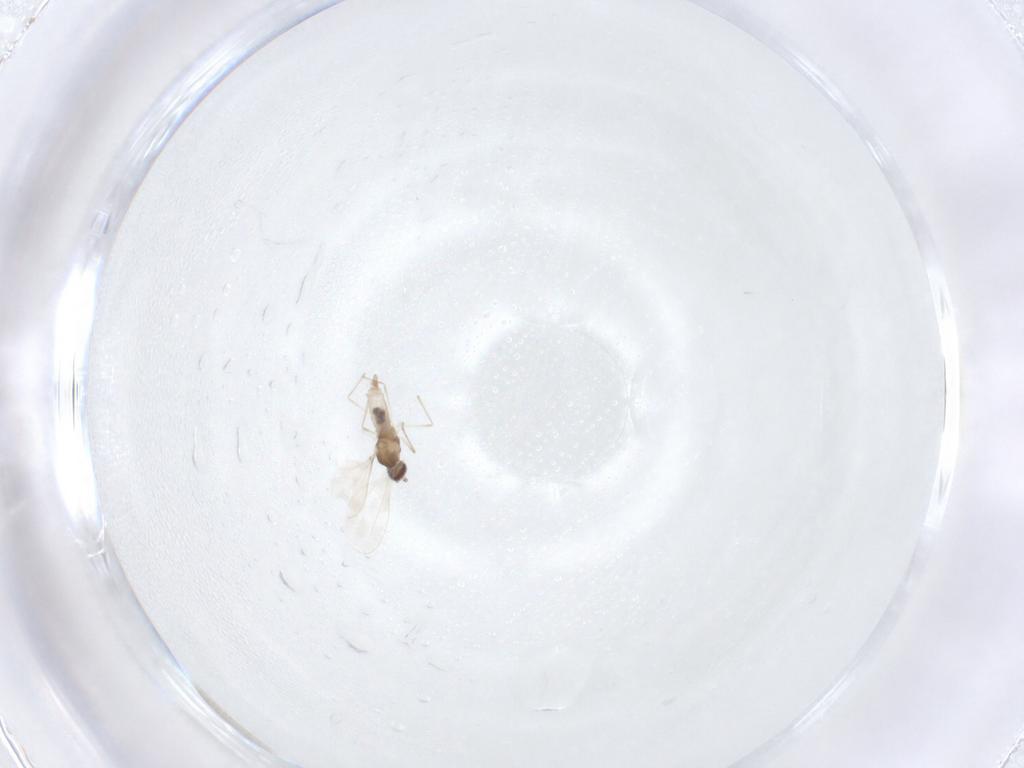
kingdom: Animalia
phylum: Arthropoda
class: Insecta
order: Diptera
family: Cecidomyiidae
